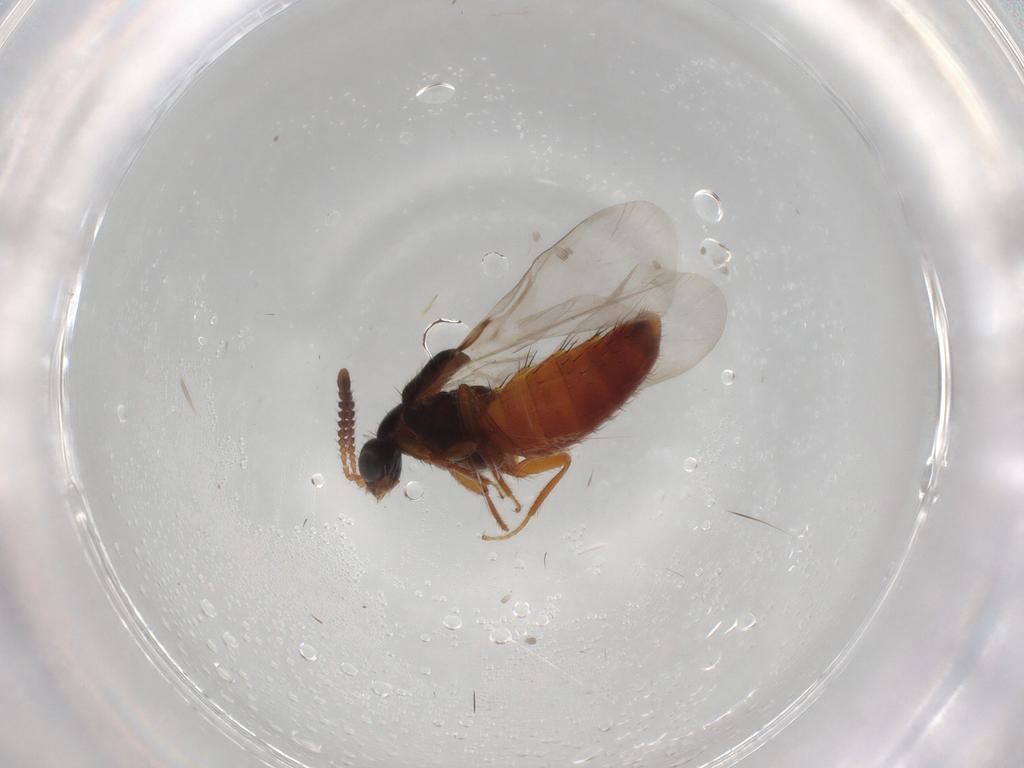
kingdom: Animalia
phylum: Arthropoda
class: Insecta
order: Coleoptera
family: Staphylinidae
